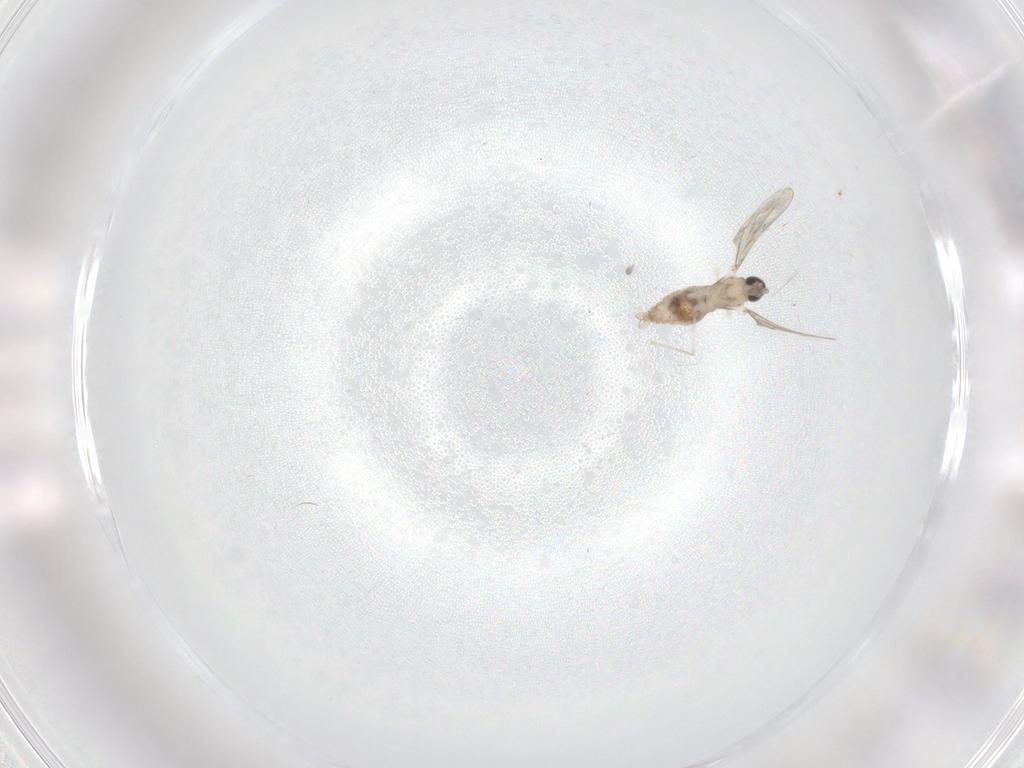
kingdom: Animalia
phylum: Arthropoda
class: Insecta
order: Diptera
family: Cecidomyiidae
